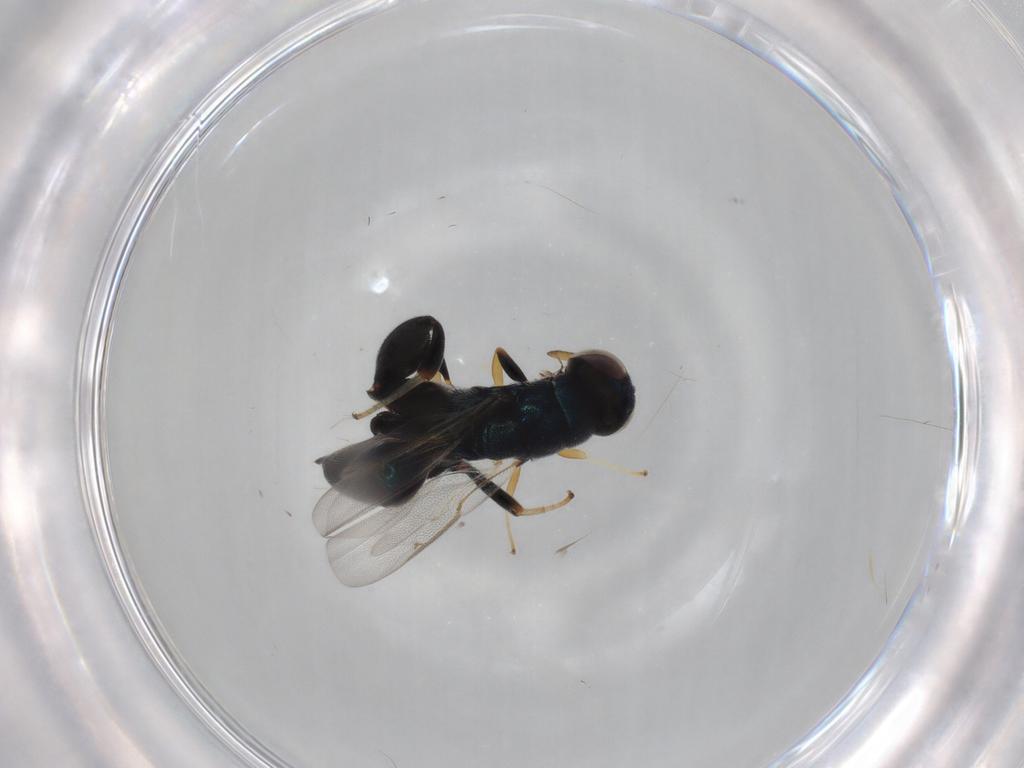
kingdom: Animalia
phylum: Arthropoda
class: Insecta
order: Hymenoptera
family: Torymidae
